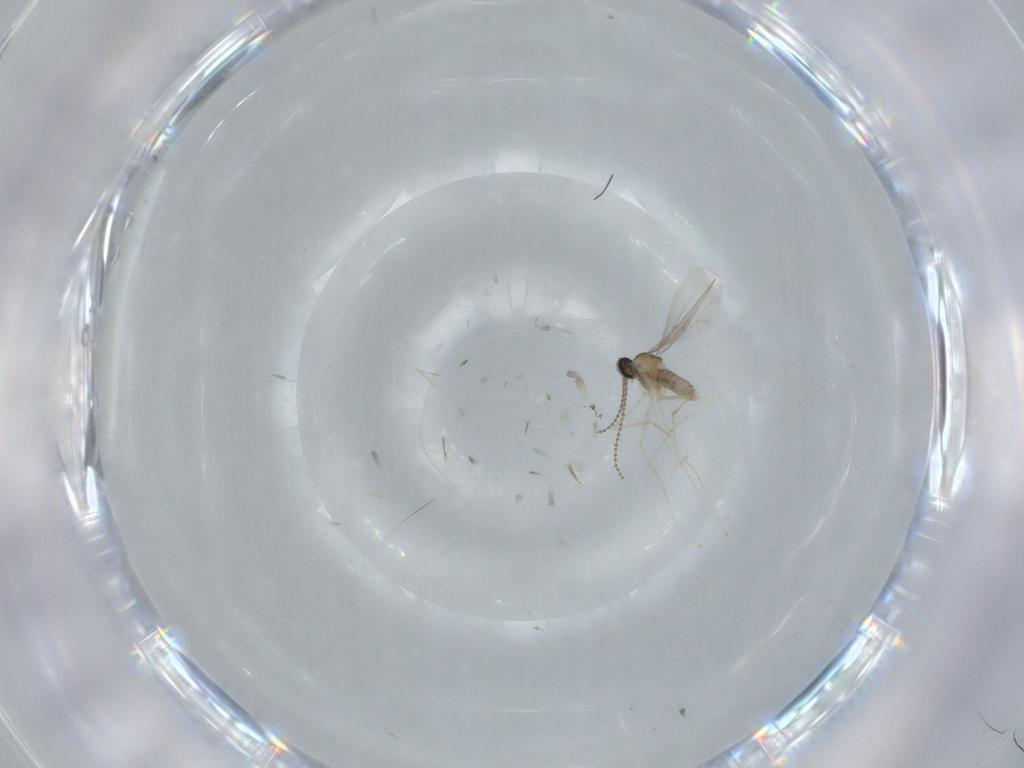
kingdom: Animalia
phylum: Arthropoda
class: Insecta
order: Diptera
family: Cecidomyiidae
